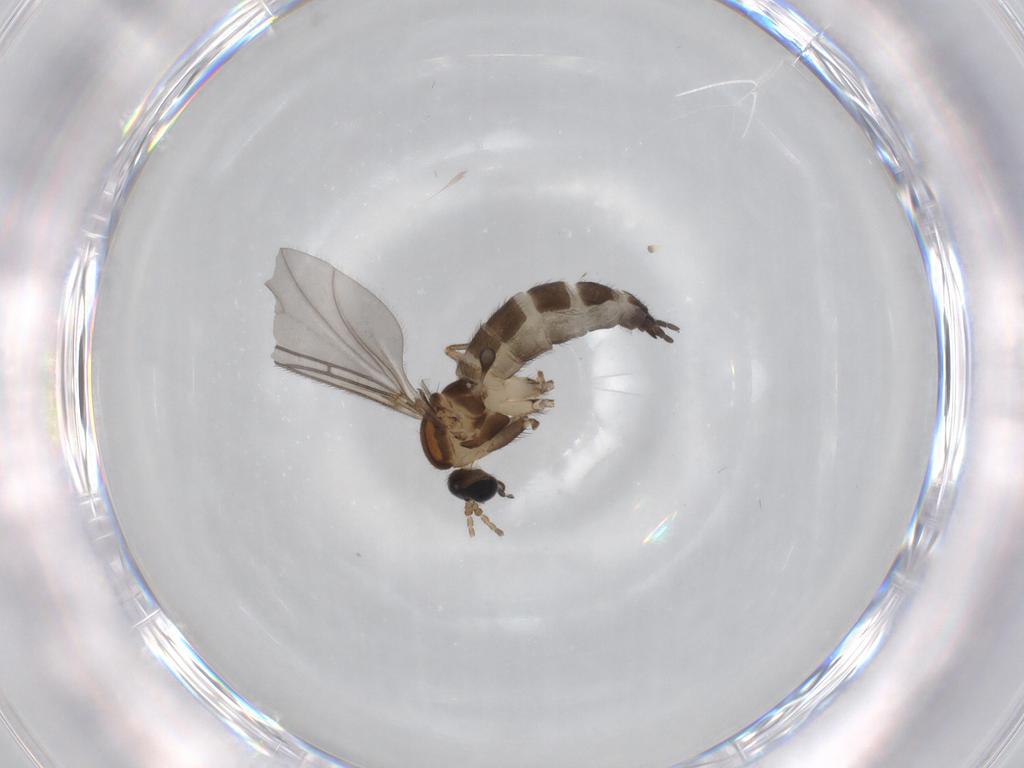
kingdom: Animalia
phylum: Arthropoda
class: Insecta
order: Diptera
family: Sciaridae
